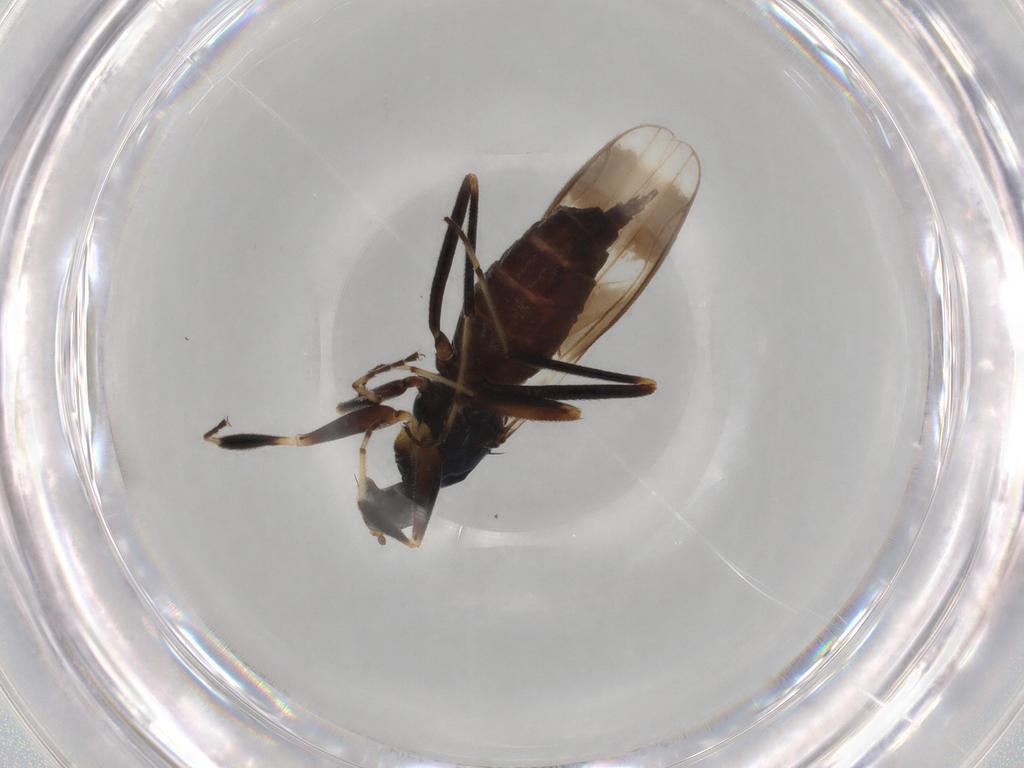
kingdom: Animalia
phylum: Arthropoda
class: Insecta
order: Diptera
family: Hybotidae
